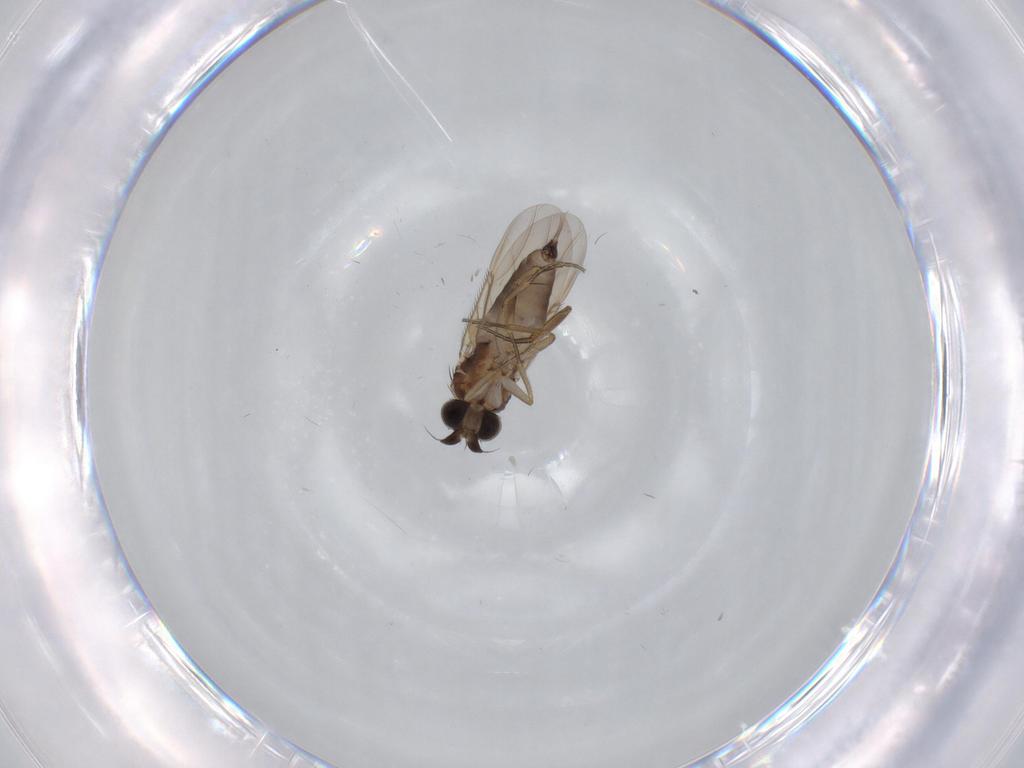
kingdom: Animalia
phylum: Arthropoda
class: Insecta
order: Diptera
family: Phoridae
